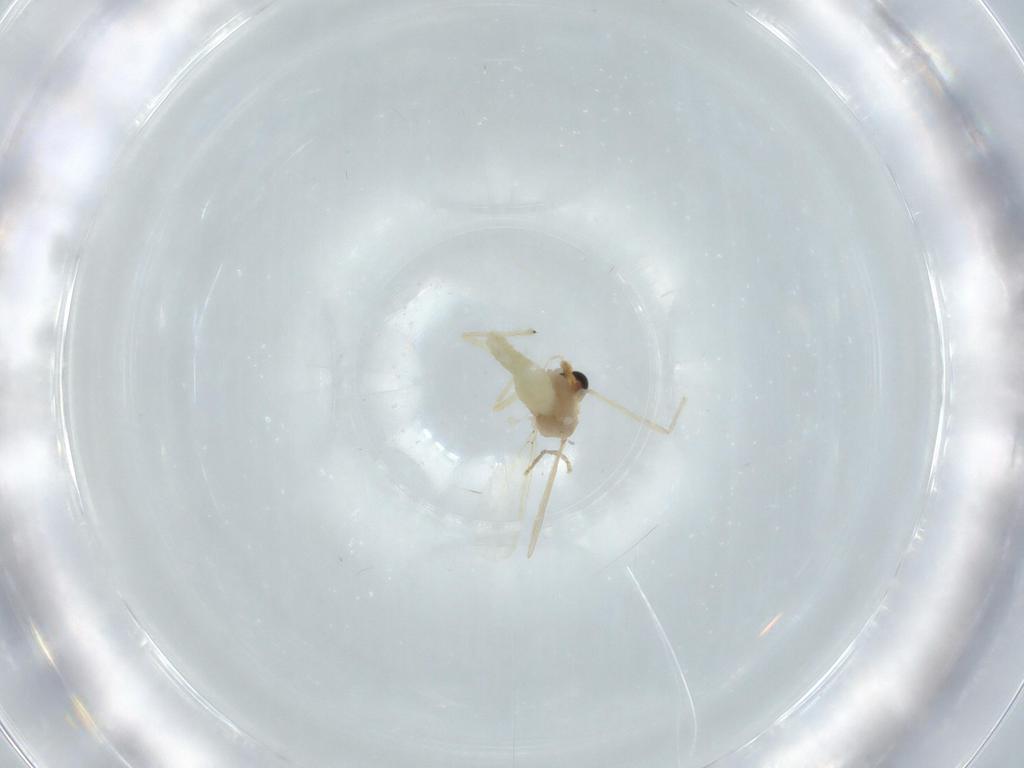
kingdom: Animalia
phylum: Arthropoda
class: Insecta
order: Diptera
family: Chironomidae
